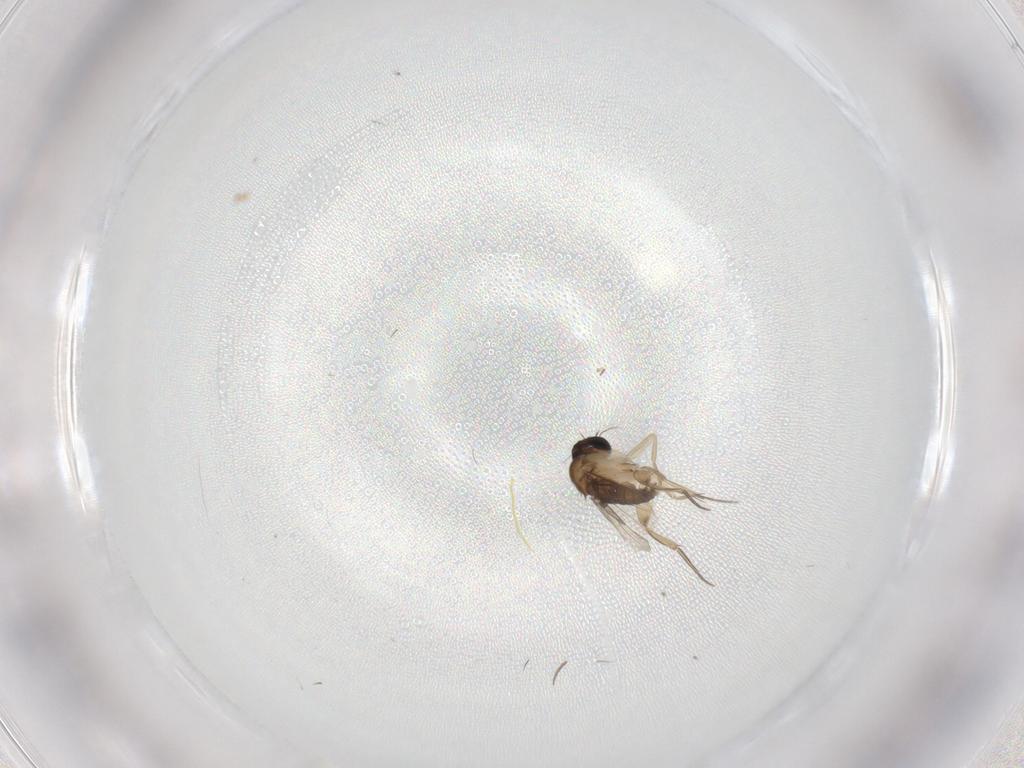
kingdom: Animalia
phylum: Arthropoda
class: Insecta
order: Diptera
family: Phoridae
